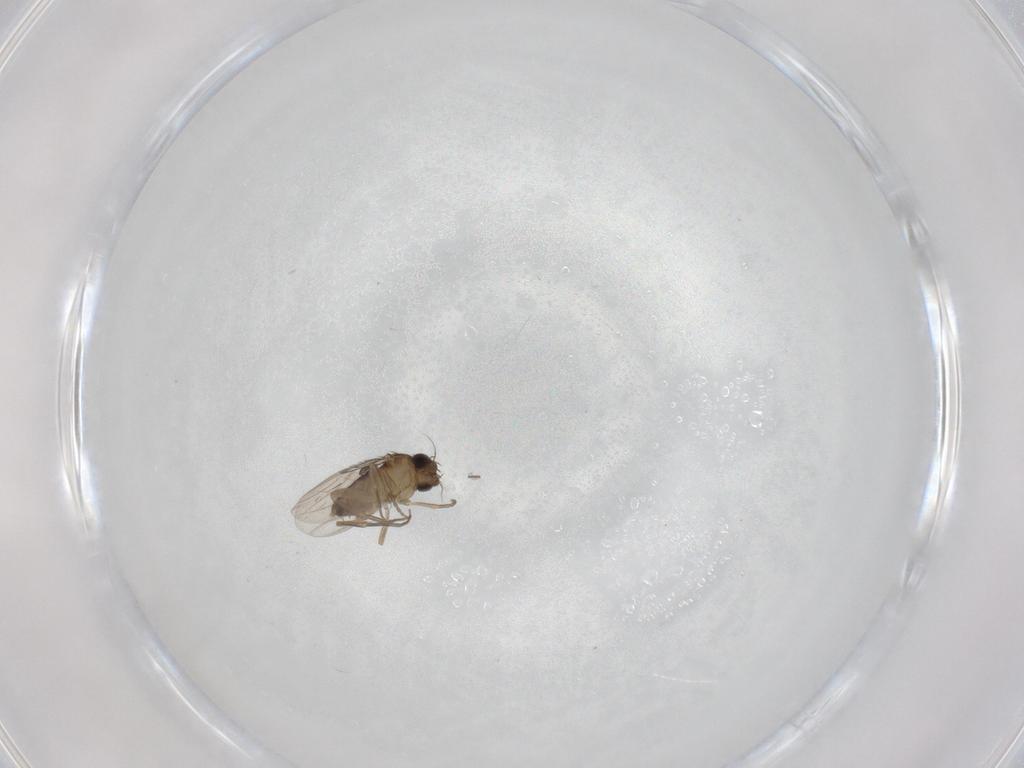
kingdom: Animalia
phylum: Arthropoda
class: Insecta
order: Diptera
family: Phoridae
